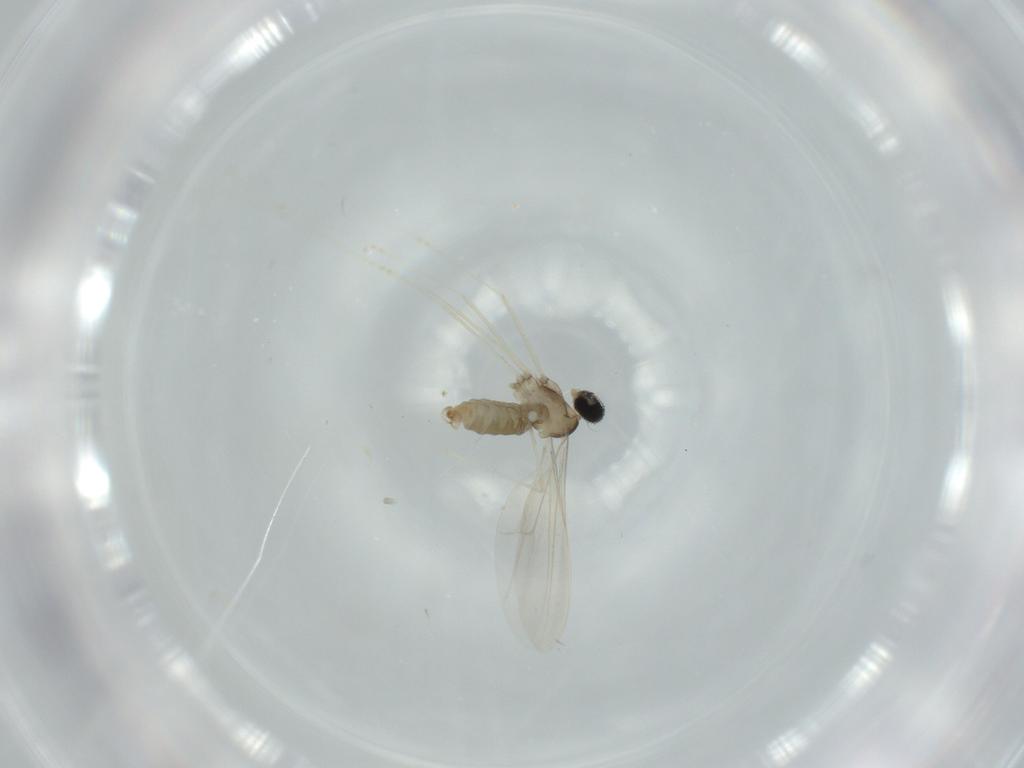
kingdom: Animalia
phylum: Arthropoda
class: Insecta
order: Diptera
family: Cecidomyiidae
